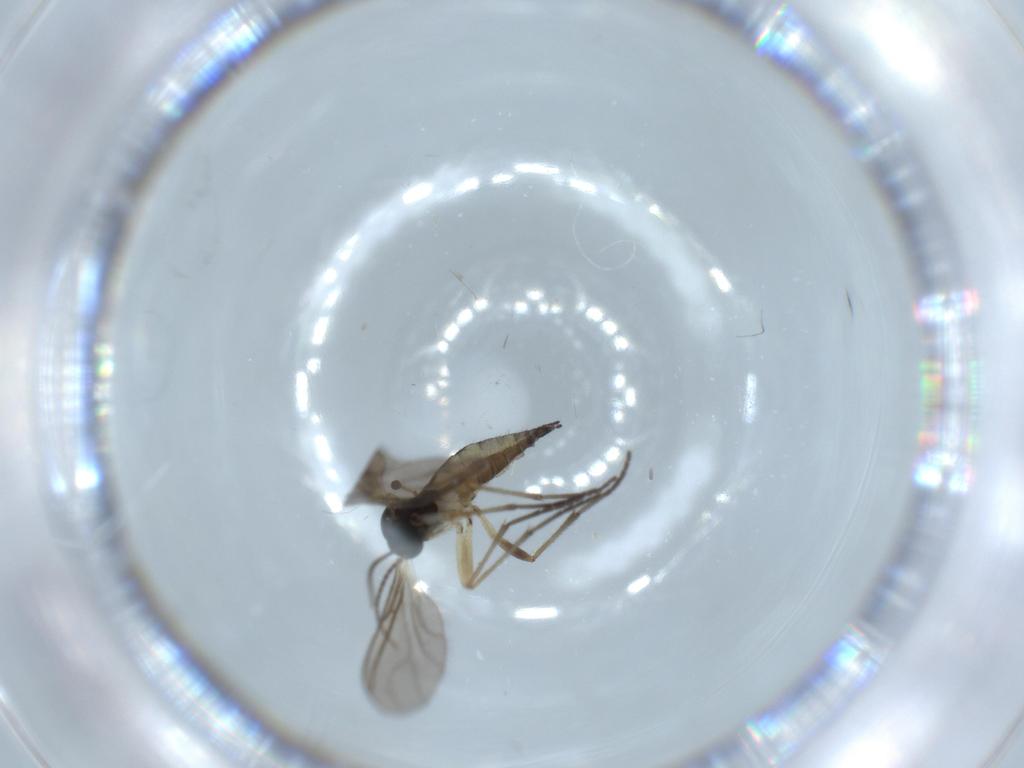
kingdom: Animalia
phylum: Arthropoda
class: Insecta
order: Diptera
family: Sciaridae
